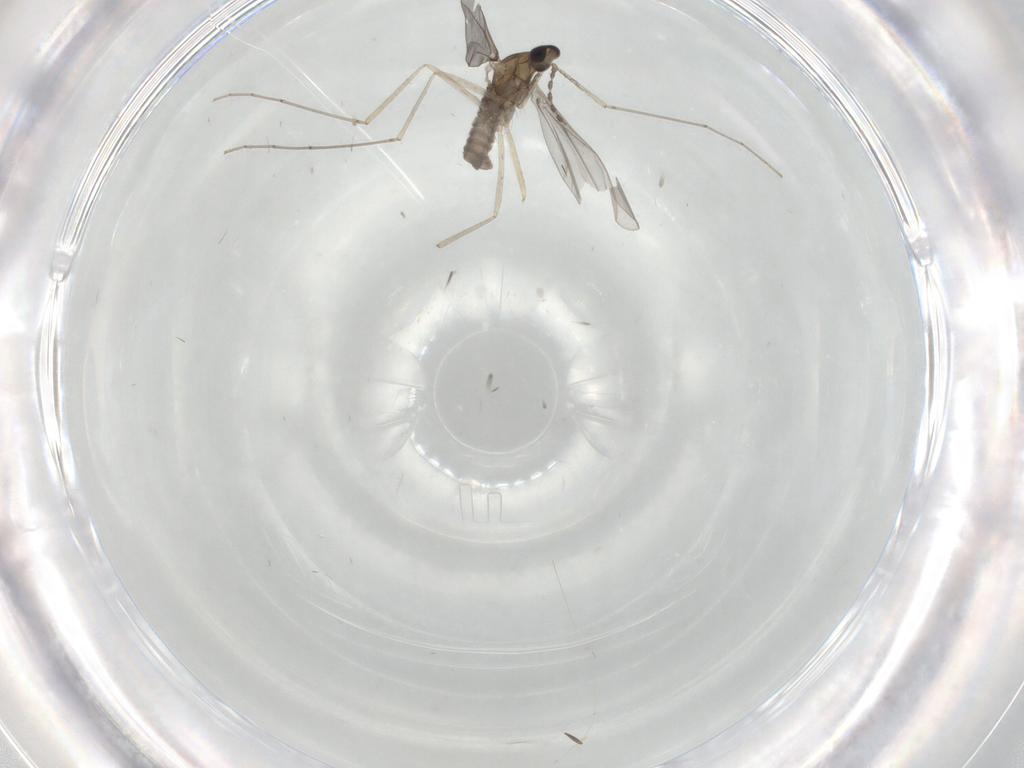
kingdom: Animalia
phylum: Arthropoda
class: Insecta
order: Diptera
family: Cecidomyiidae
